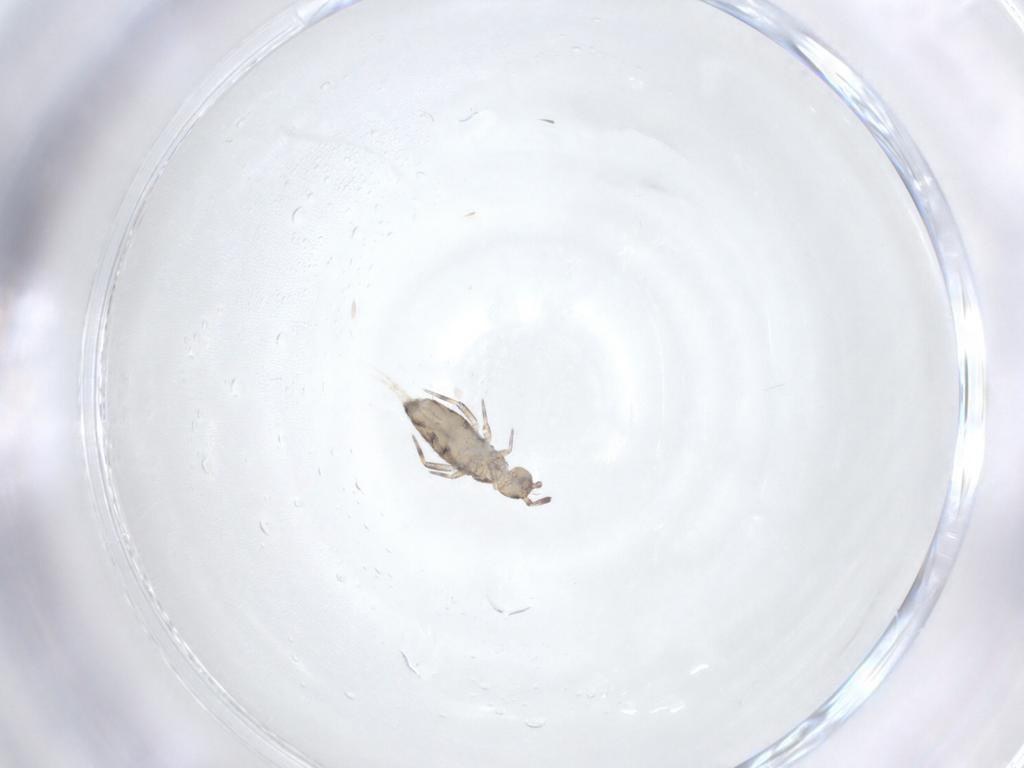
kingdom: Animalia
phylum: Arthropoda
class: Collembola
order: Entomobryomorpha
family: Entomobryidae
